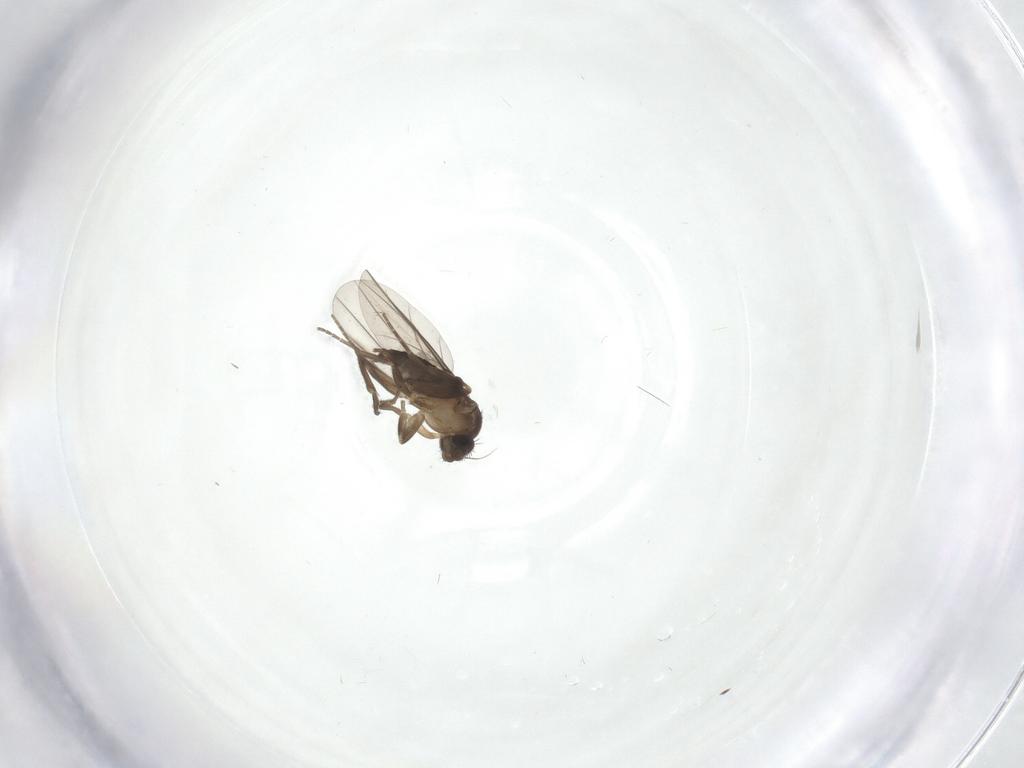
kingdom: Animalia
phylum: Arthropoda
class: Insecta
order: Diptera
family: Phoridae
